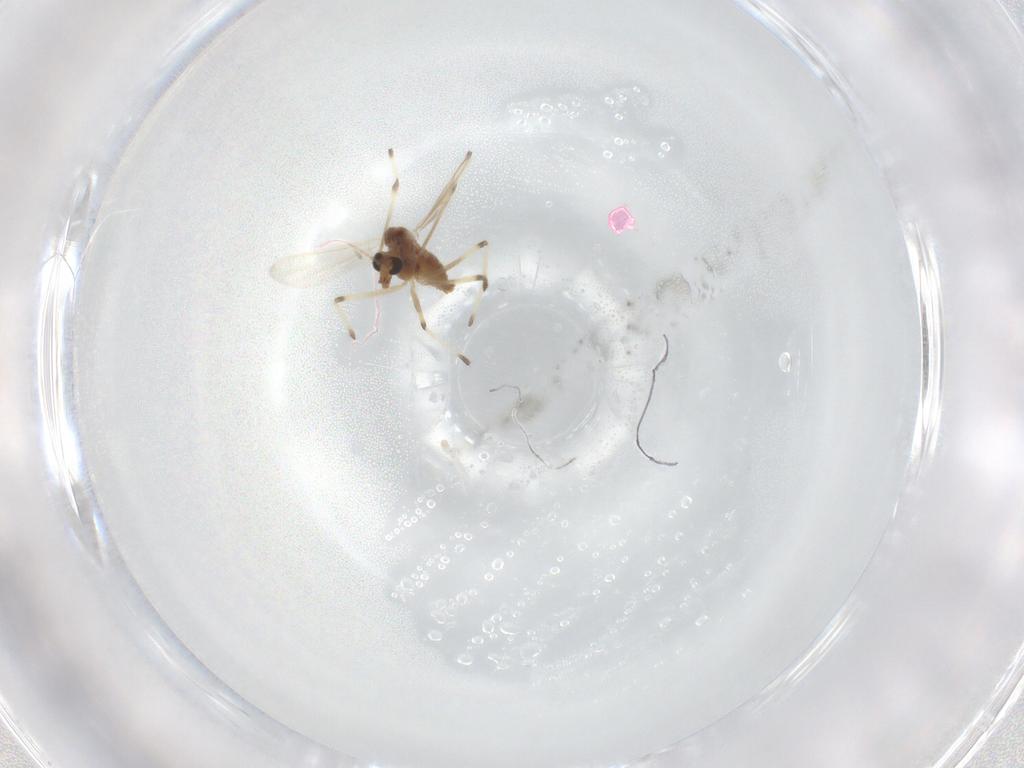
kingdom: Animalia
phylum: Arthropoda
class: Insecta
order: Diptera
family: Chironomidae
